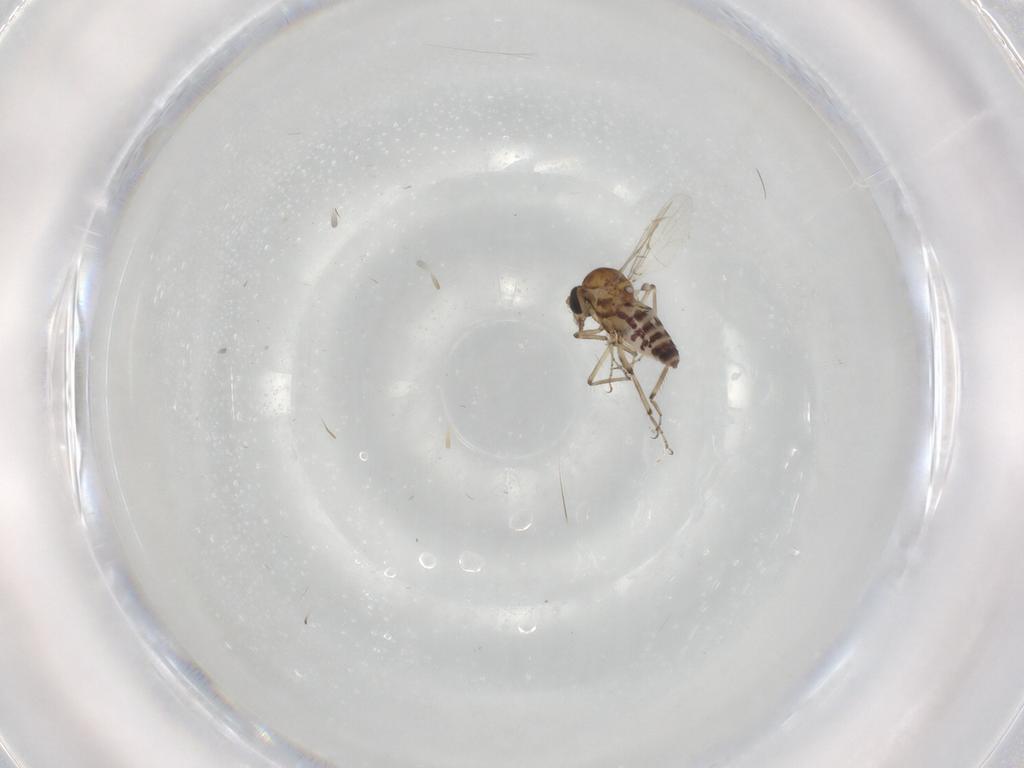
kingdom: Animalia
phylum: Arthropoda
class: Insecta
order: Diptera
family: Ceratopogonidae
